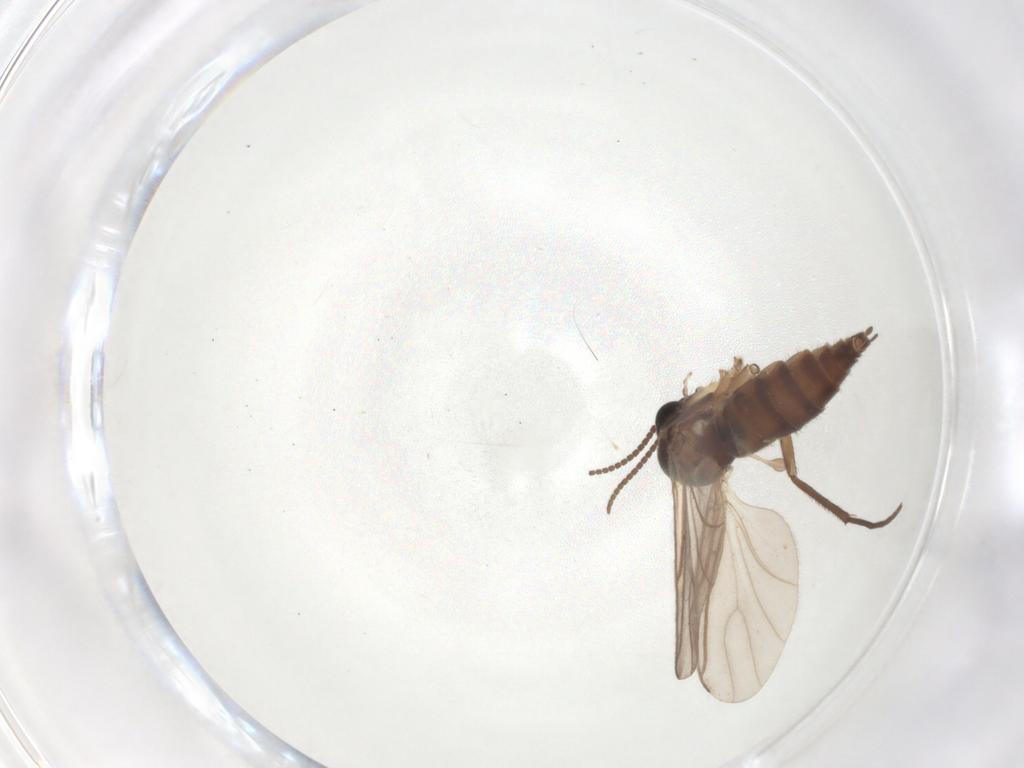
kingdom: Animalia
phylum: Arthropoda
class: Insecta
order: Diptera
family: Sciaridae
